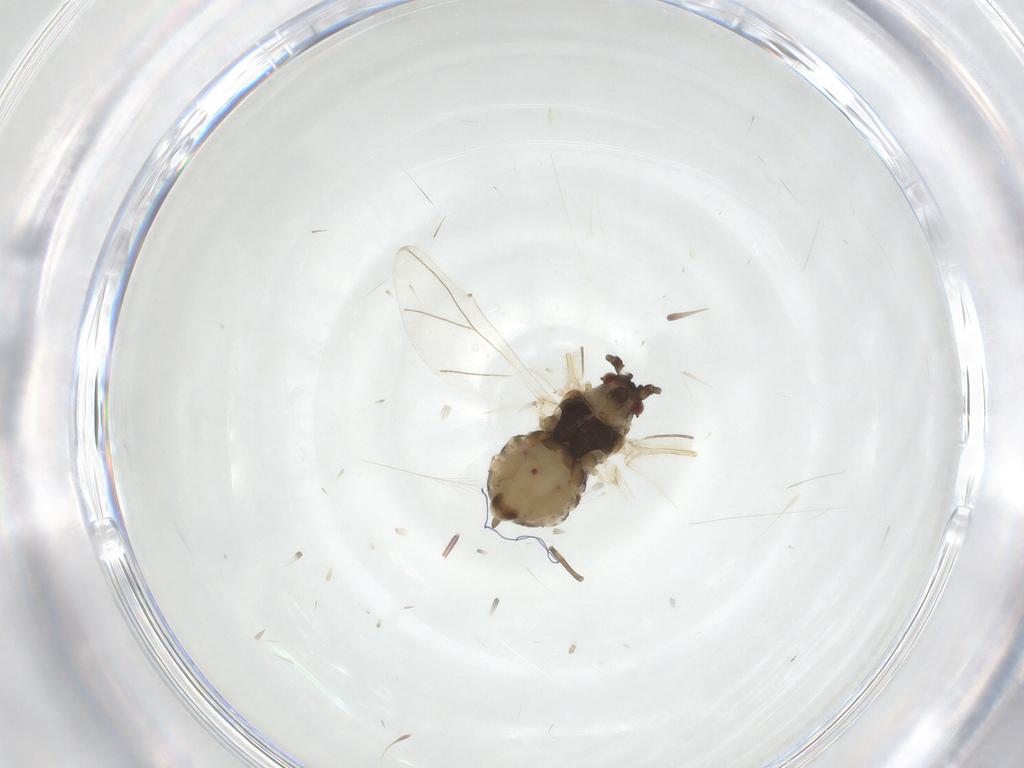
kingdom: Animalia
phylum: Arthropoda
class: Insecta
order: Hemiptera
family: Aphididae
